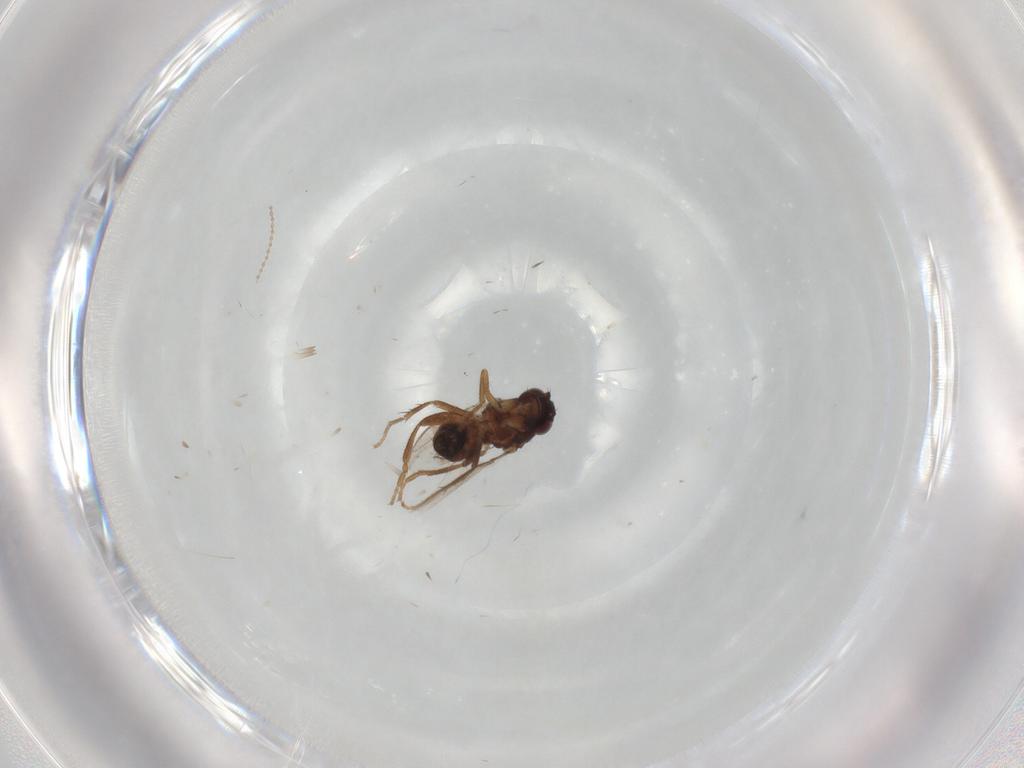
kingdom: Animalia
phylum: Arthropoda
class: Insecta
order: Diptera
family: Sphaeroceridae
